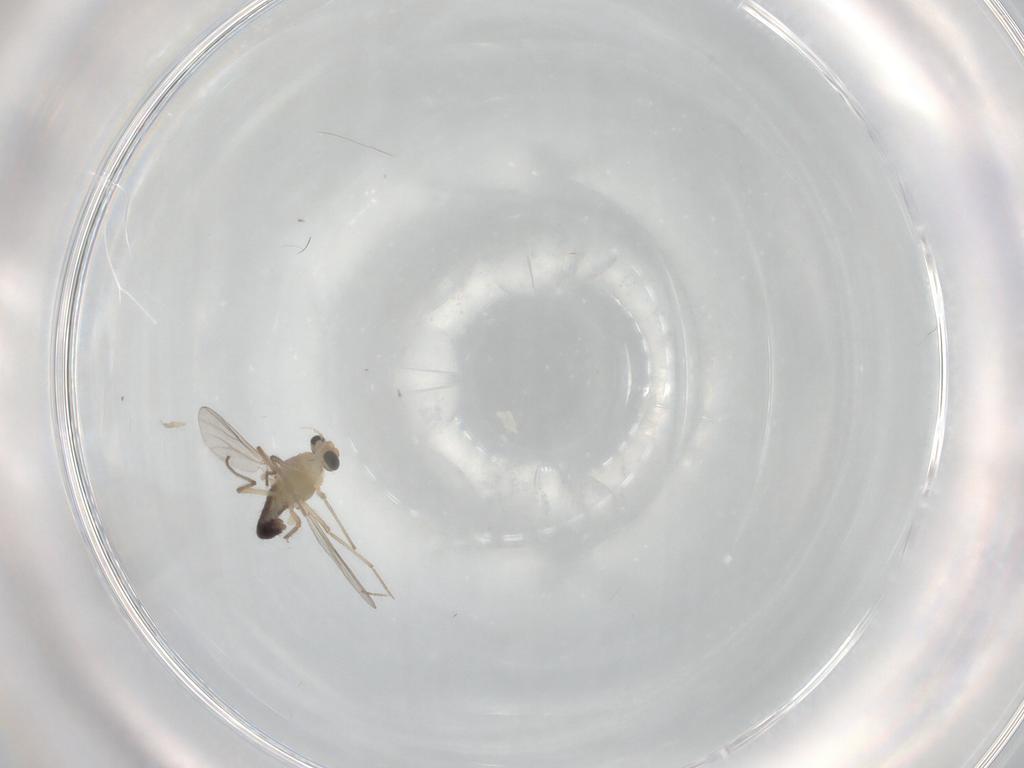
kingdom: Animalia
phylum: Arthropoda
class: Insecta
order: Diptera
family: Chironomidae
